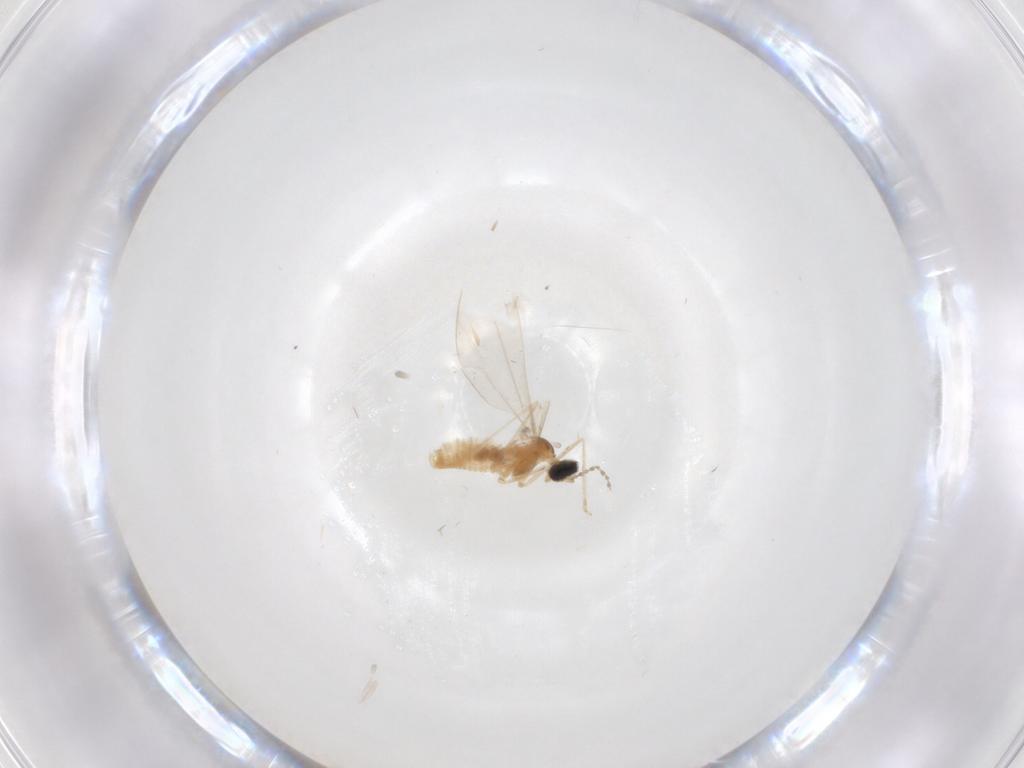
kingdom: Animalia
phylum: Arthropoda
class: Insecta
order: Diptera
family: Cecidomyiidae
